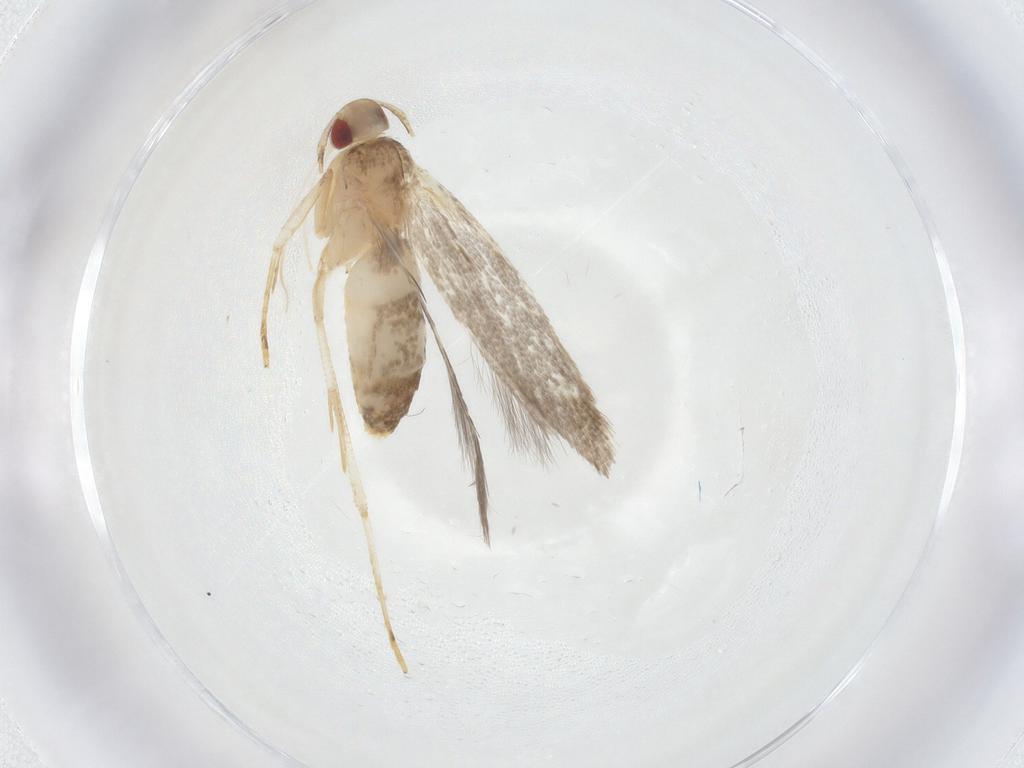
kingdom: Animalia
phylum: Arthropoda
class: Insecta
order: Lepidoptera
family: Cosmopterigidae
